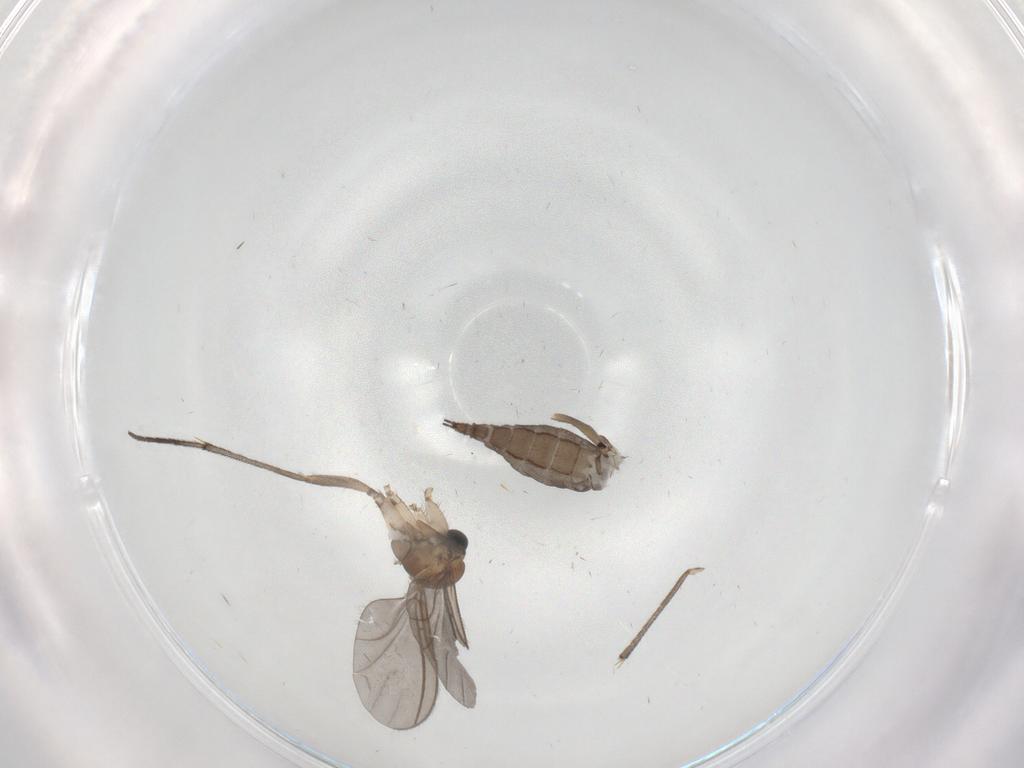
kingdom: Animalia
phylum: Arthropoda
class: Insecta
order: Diptera
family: Sciaridae
